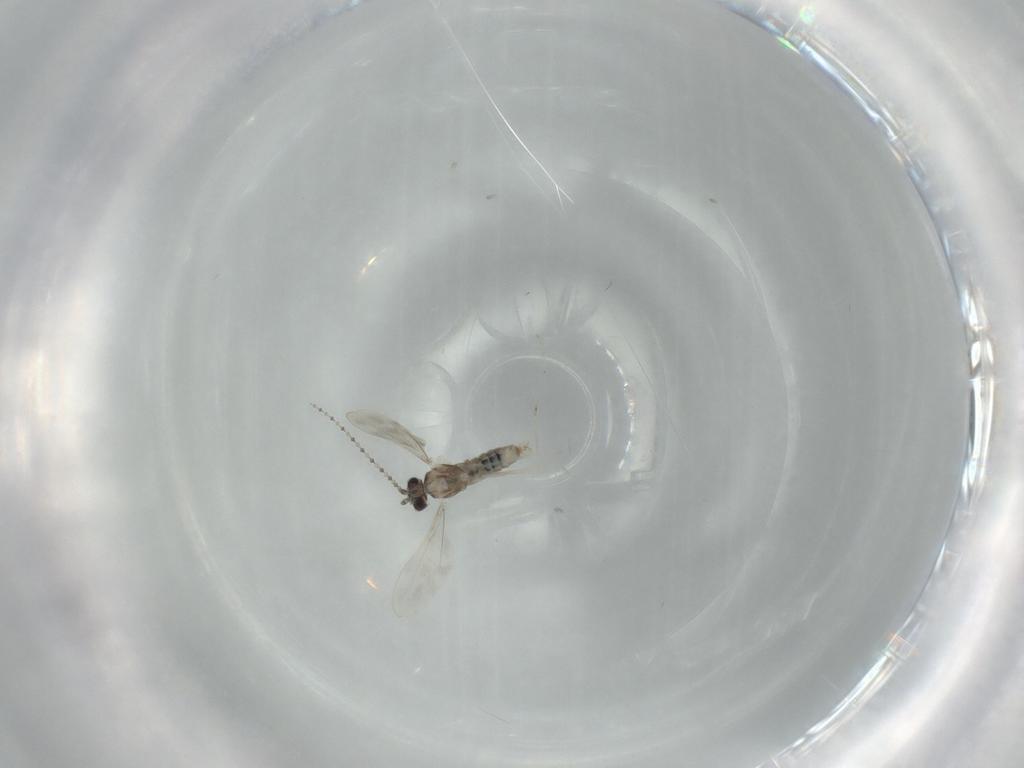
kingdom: Animalia
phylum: Arthropoda
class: Insecta
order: Diptera
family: Cecidomyiidae
